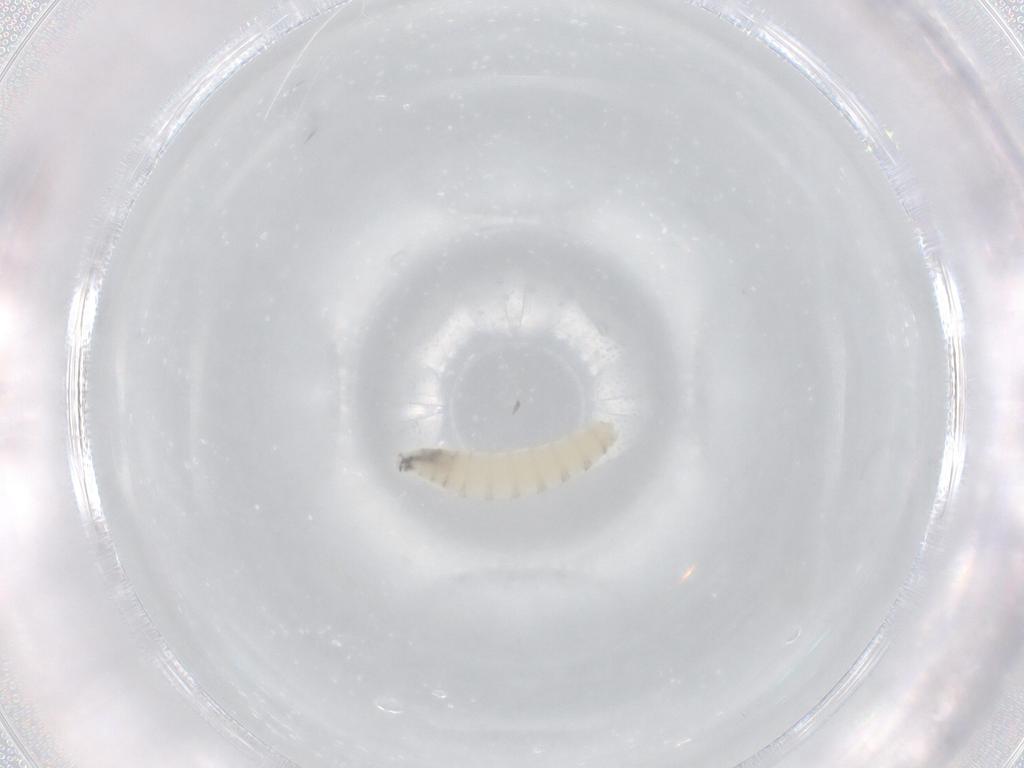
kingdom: Animalia
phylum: Arthropoda
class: Insecta
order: Diptera
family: Sarcophagidae
